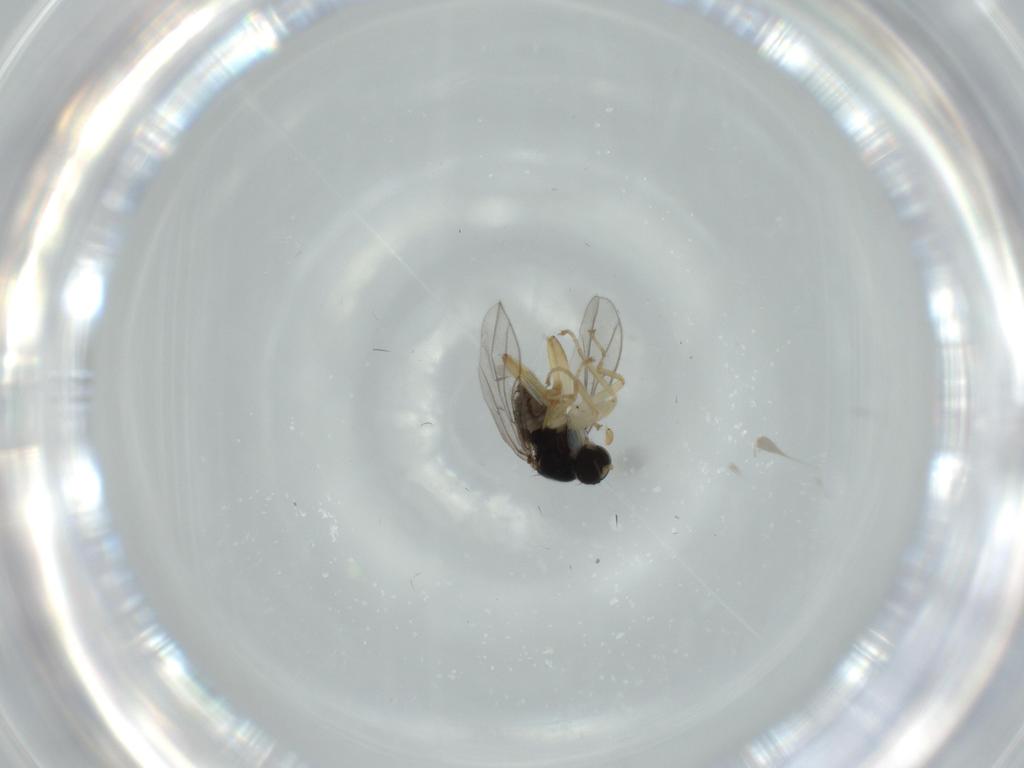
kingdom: Animalia
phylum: Arthropoda
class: Insecta
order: Diptera
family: Hybotidae
